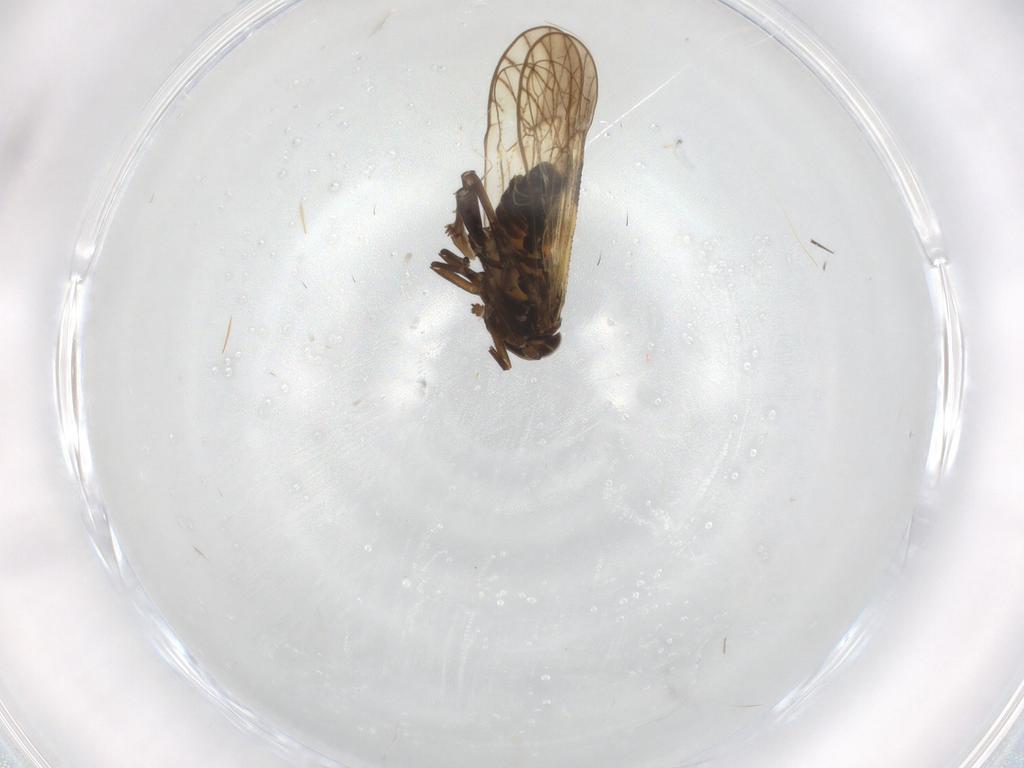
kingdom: Animalia
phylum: Arthropoda
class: Insecta
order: Hemiptera
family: Delphacidae
